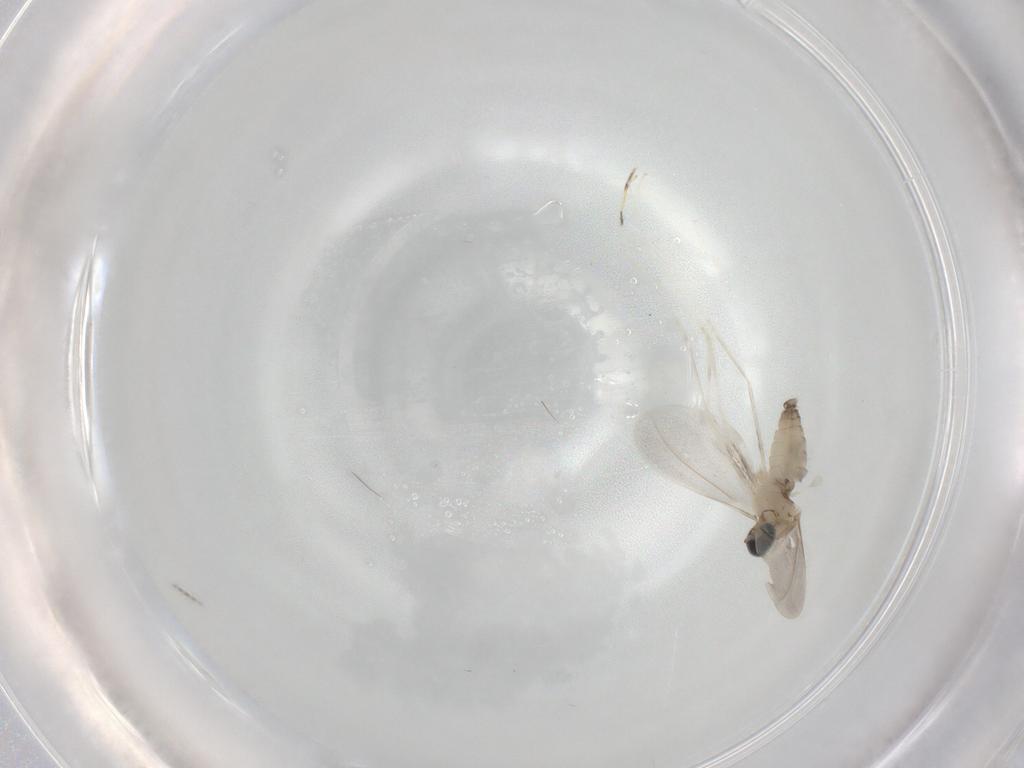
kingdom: Animalia
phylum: Arthropoda
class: Insecta
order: Diptera
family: Cecidomyiidae
